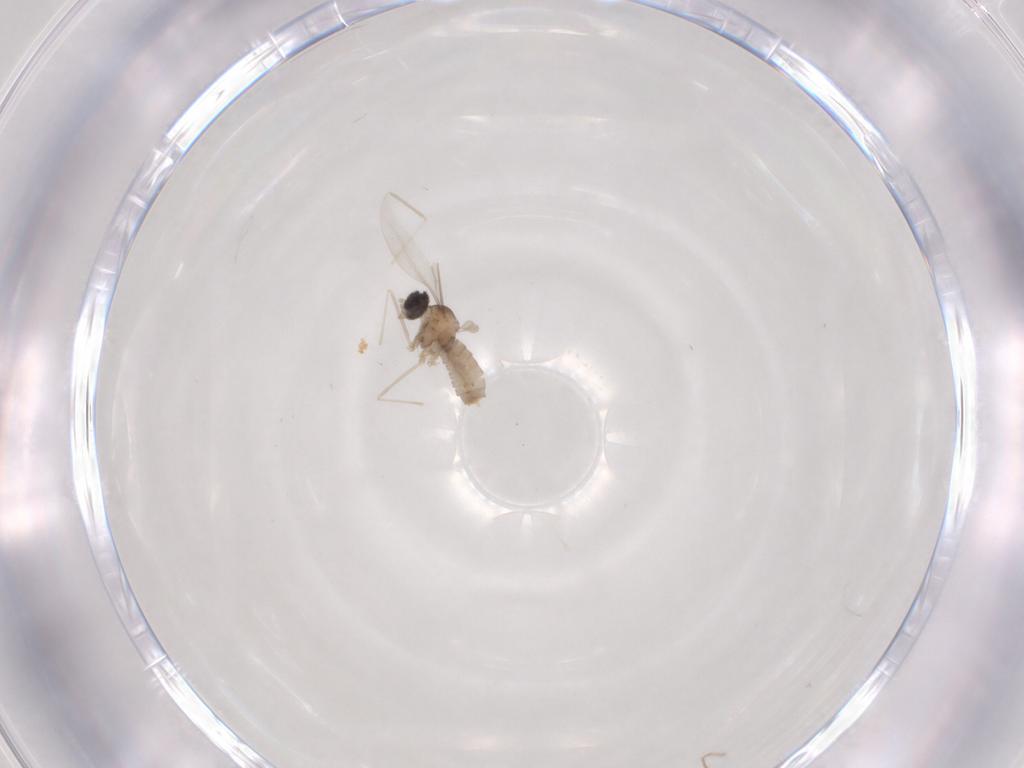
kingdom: Animalia
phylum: Arthropoda
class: Insecta
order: Diptera
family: Cecidomyiidae
